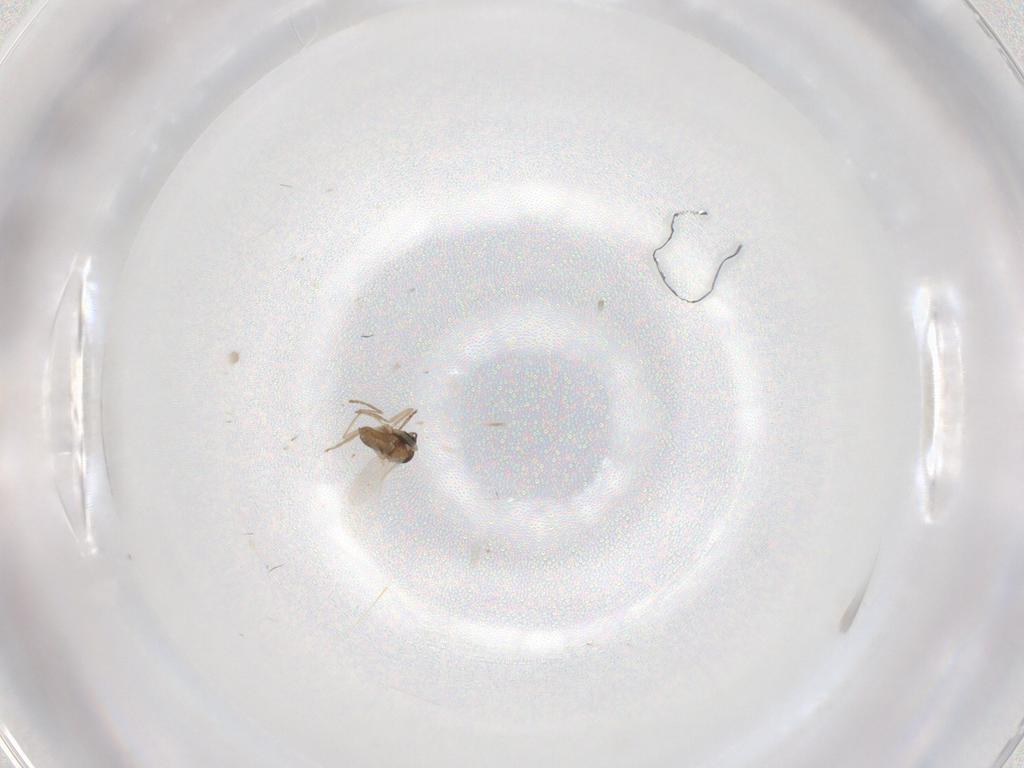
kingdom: Animalia
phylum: Arthropoda
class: Insecta
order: Diptera
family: Cecidomyiidae
